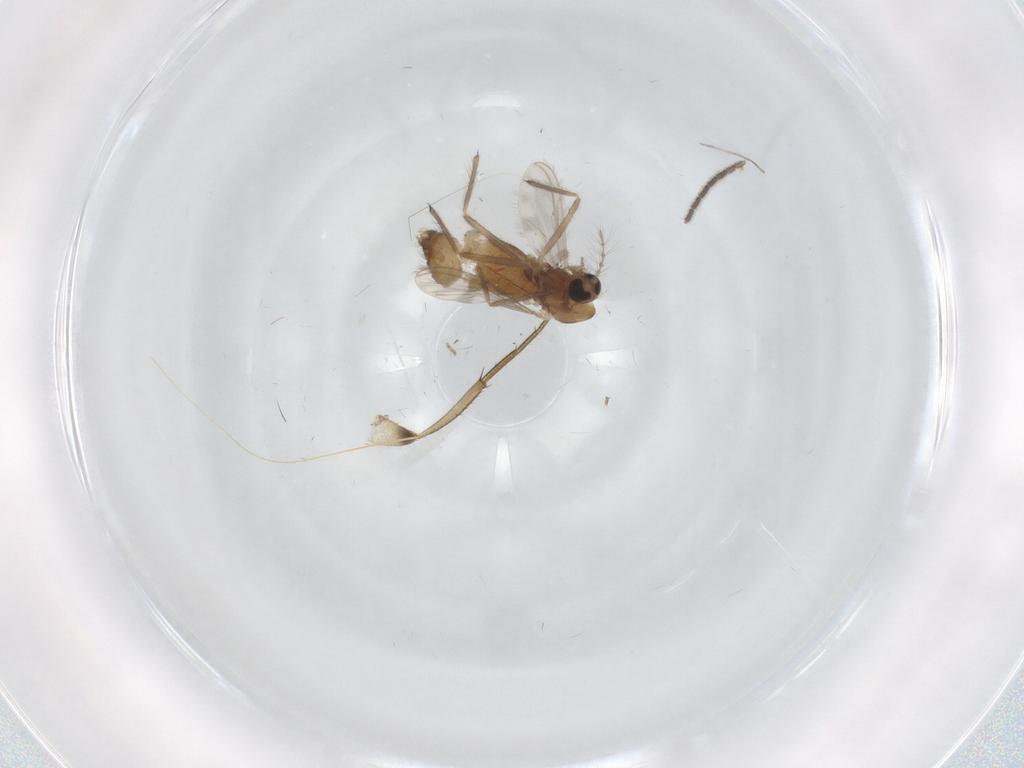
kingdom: Animalia
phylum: Arthropoda
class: Insecta
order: Diptera
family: Chironomidae
